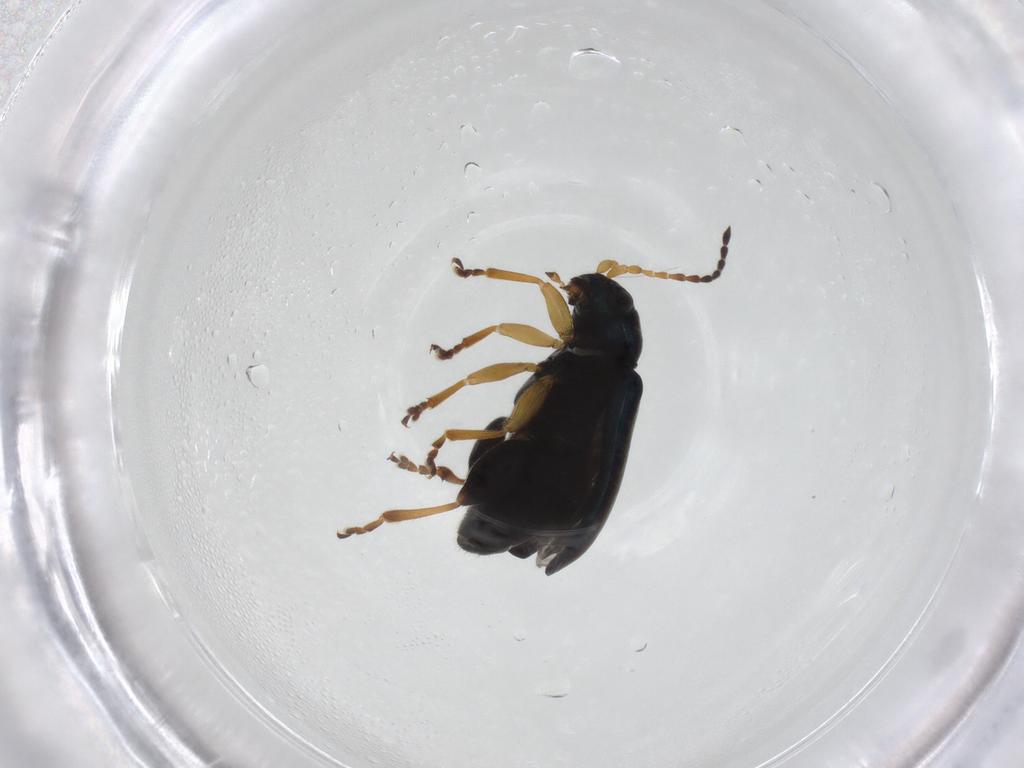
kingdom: Animalia
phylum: Arthropoda
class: Insecta
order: Coleoptera
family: Chrysomelidae
